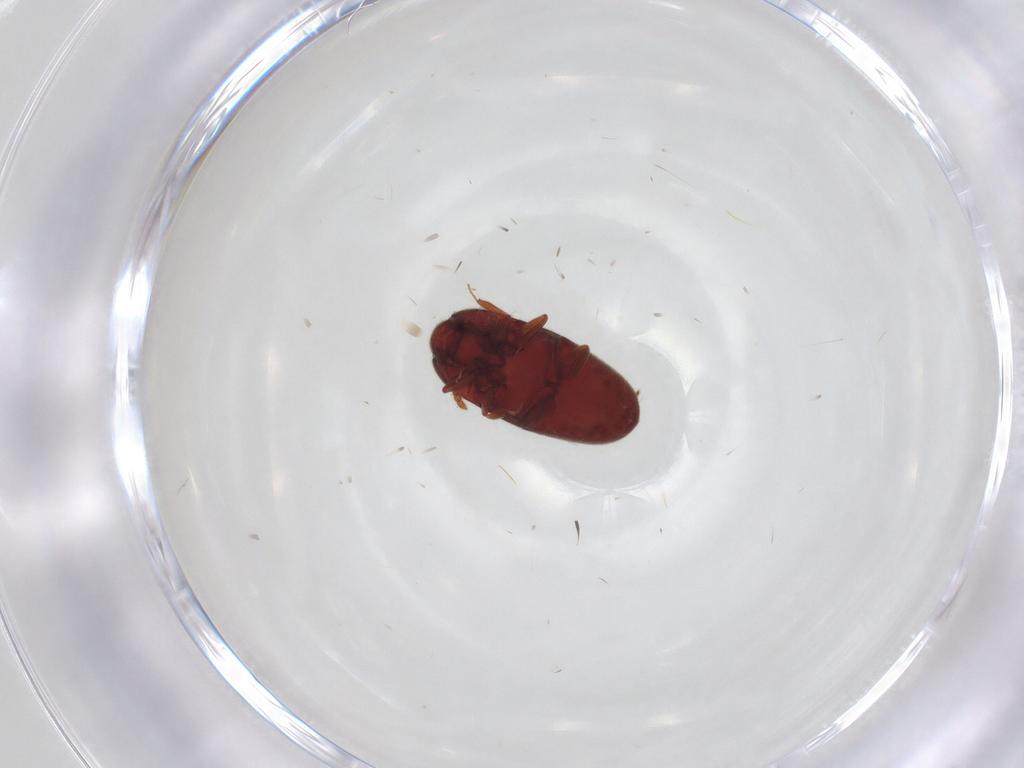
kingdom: Animalia
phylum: Arthropoda
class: Insecta
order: Coleoptera
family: Throscidae
